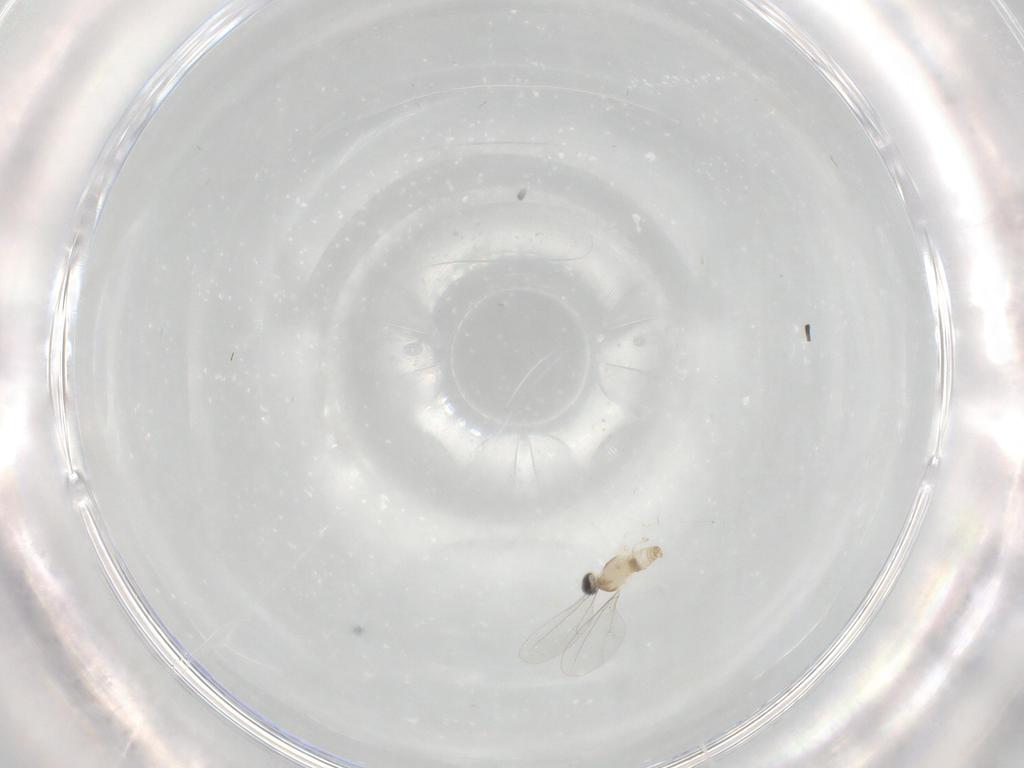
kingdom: Animalia
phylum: Arthropoda
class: Insecta
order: Diptera
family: Cecidomyiidae
